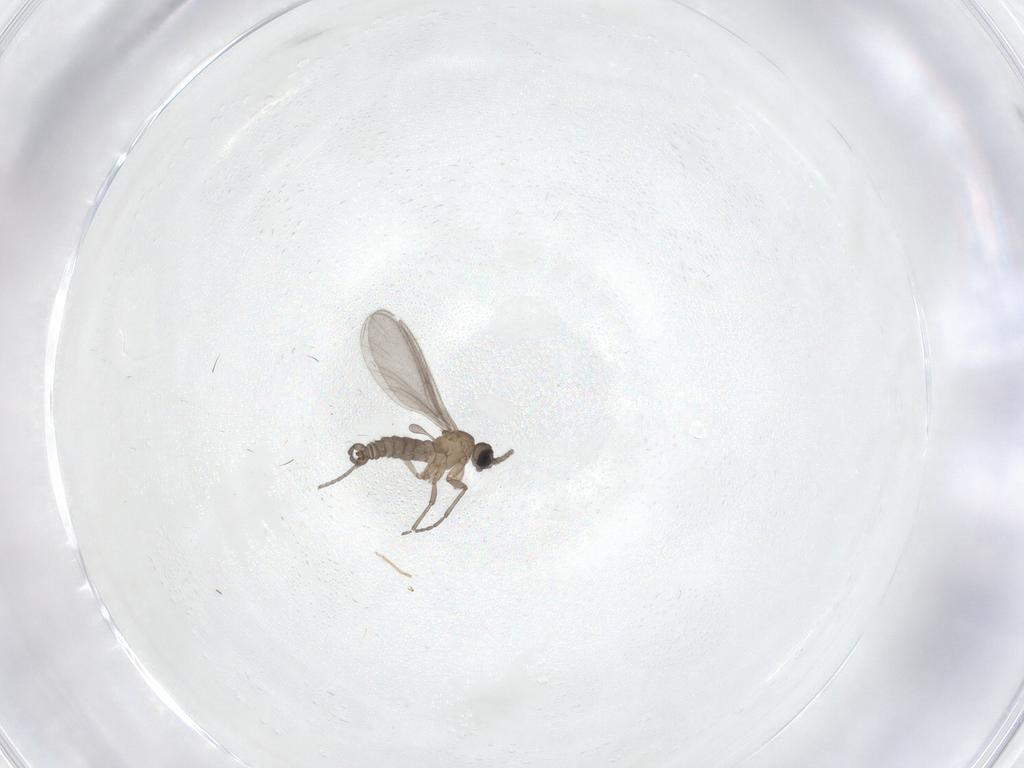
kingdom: Animalia
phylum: Arthropoda
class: Insecta
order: Diptera
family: Sciaridae
